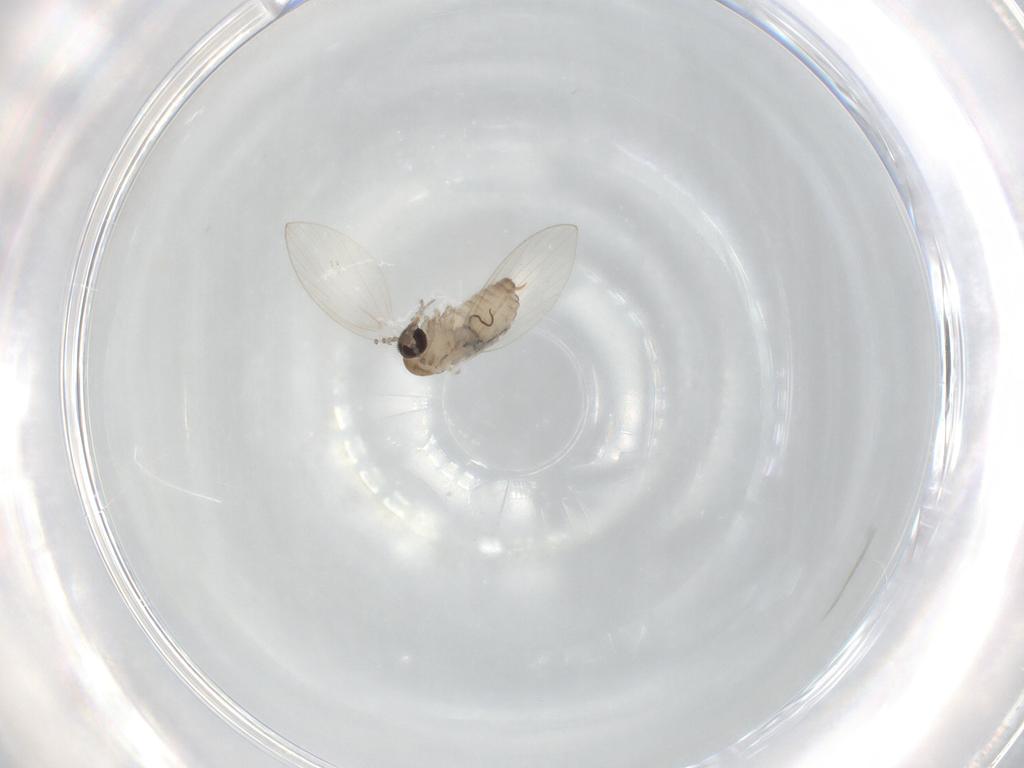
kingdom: Animalia
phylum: Arthropoda
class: Insecta
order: Diptera
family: Psychodidae
